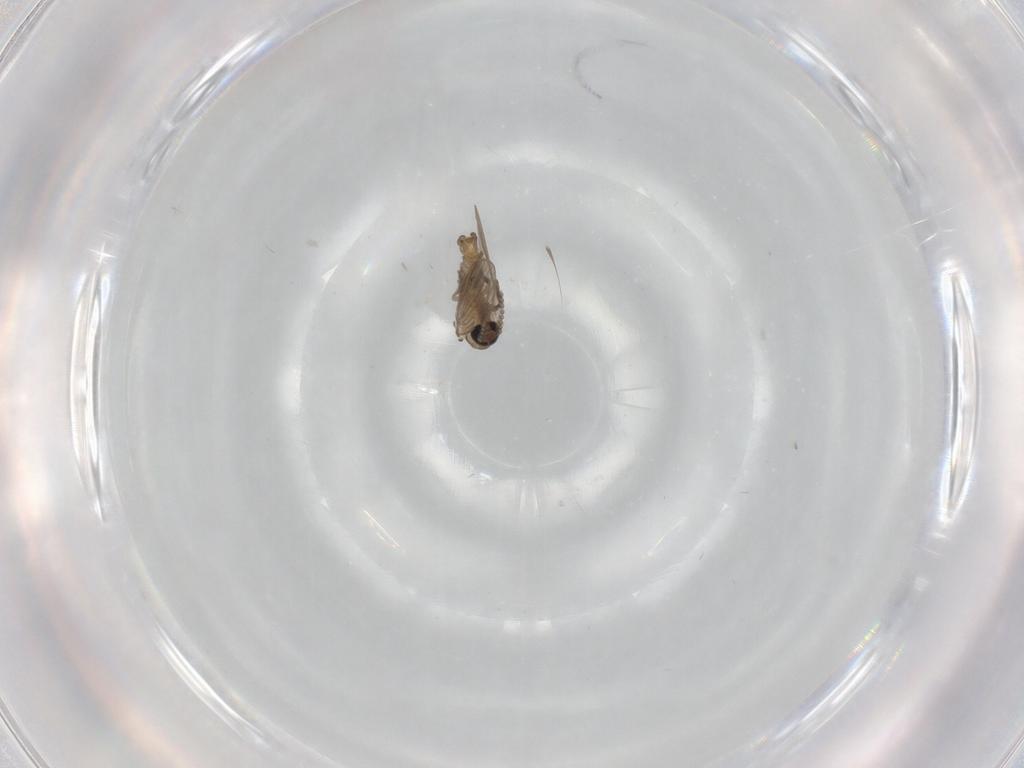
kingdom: Animalia
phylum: Arthropoda
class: Insecta
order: Diptera
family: Psychodidae
